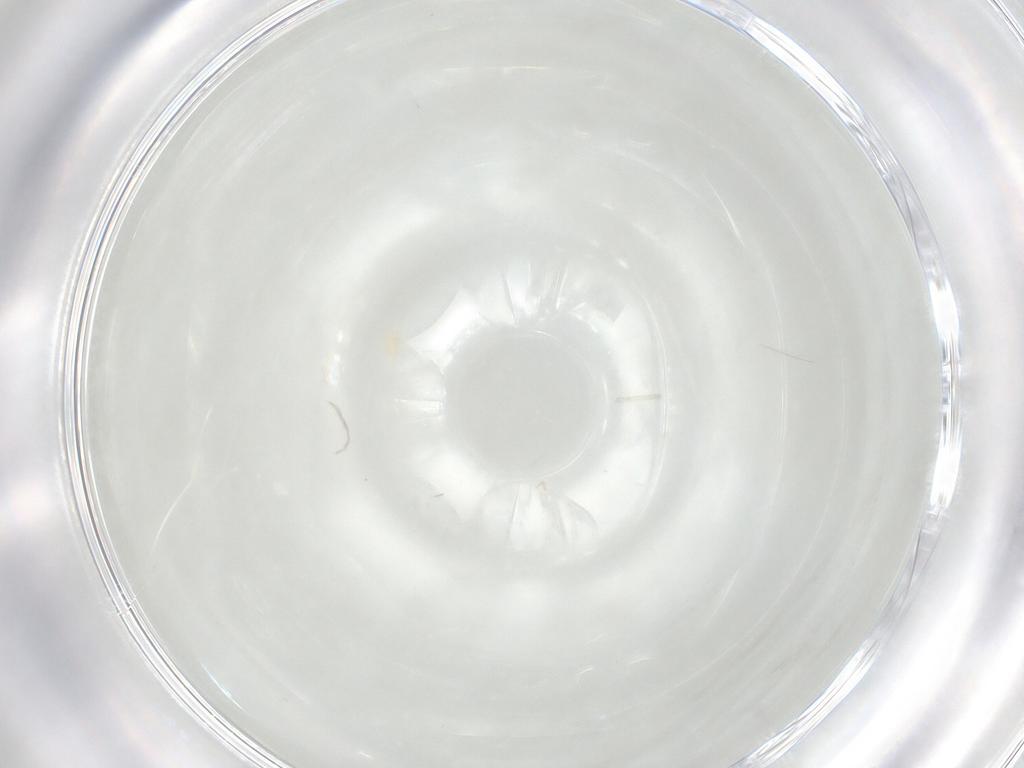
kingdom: Animalia
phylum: Arthropoda
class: Arachnida
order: Trombidiformes
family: Eupodidae
